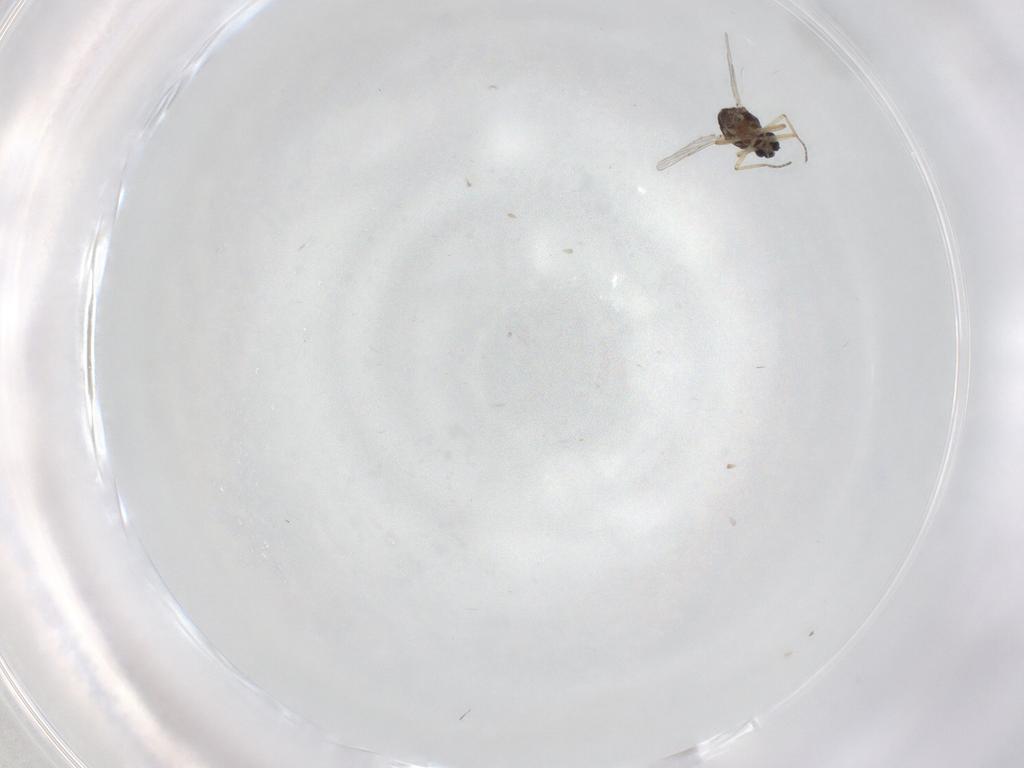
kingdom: Animalia
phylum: Arthropoda
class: Insecta
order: Diptera
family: Ceratopogonidae
